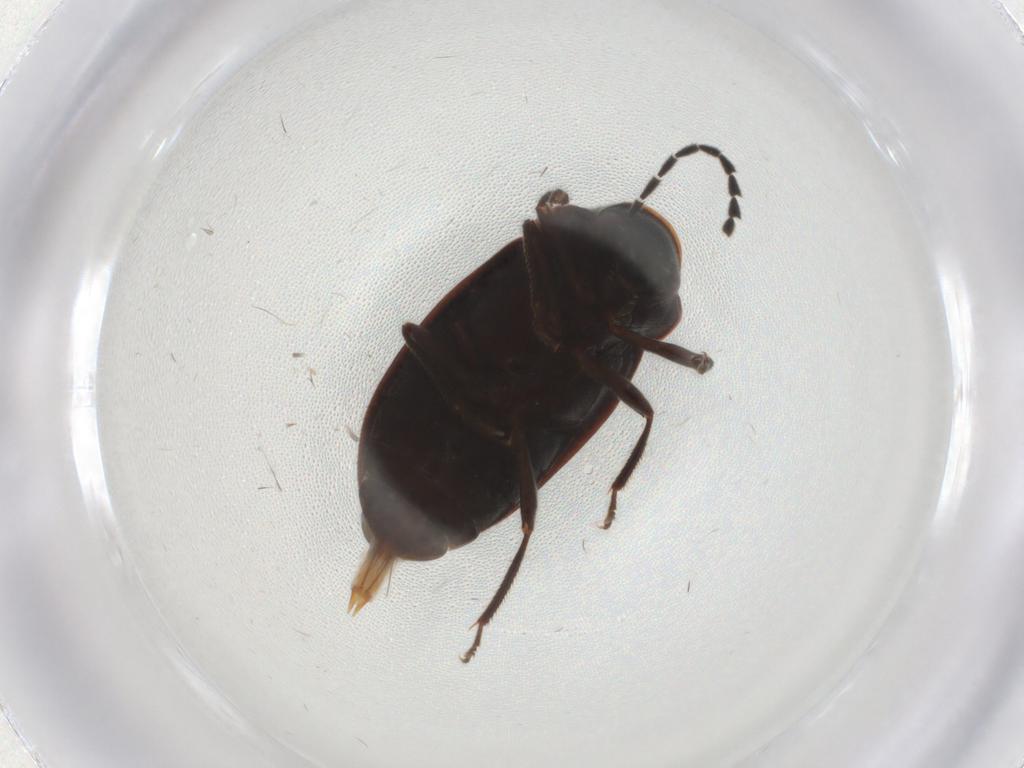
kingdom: Animalia
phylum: Arthropoda
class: Insecta
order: Coleoptera
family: Ptilodactylidae
